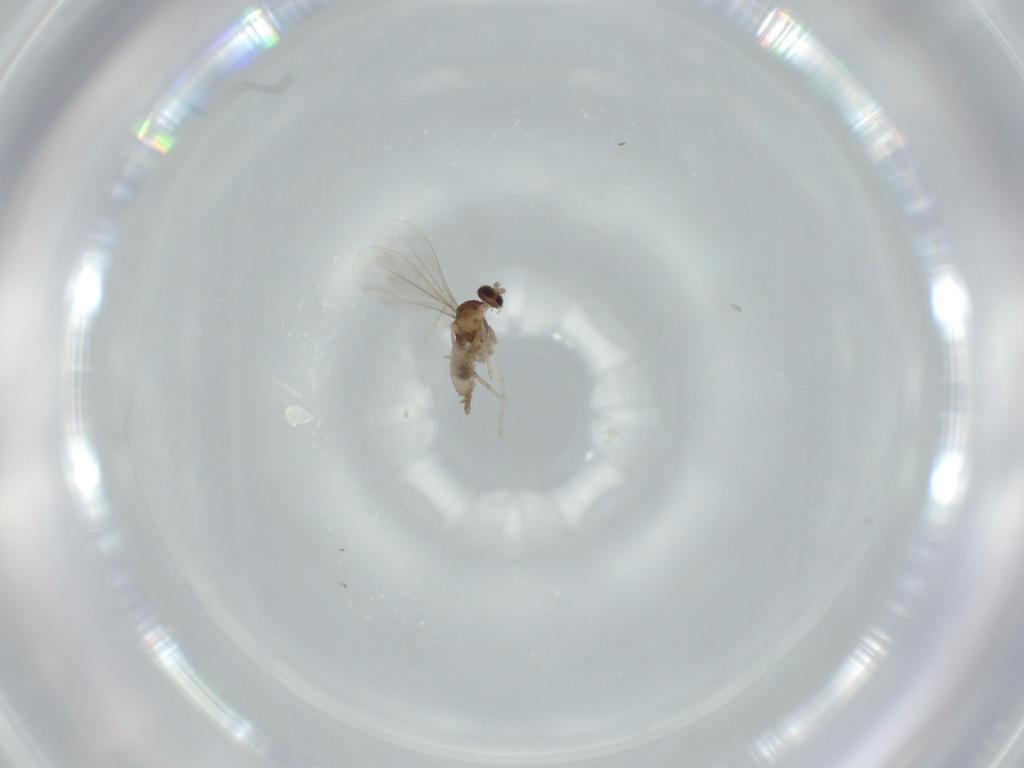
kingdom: Animalia
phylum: Arthropoda
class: Insecta
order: Diptera
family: Cecidomyiidae
